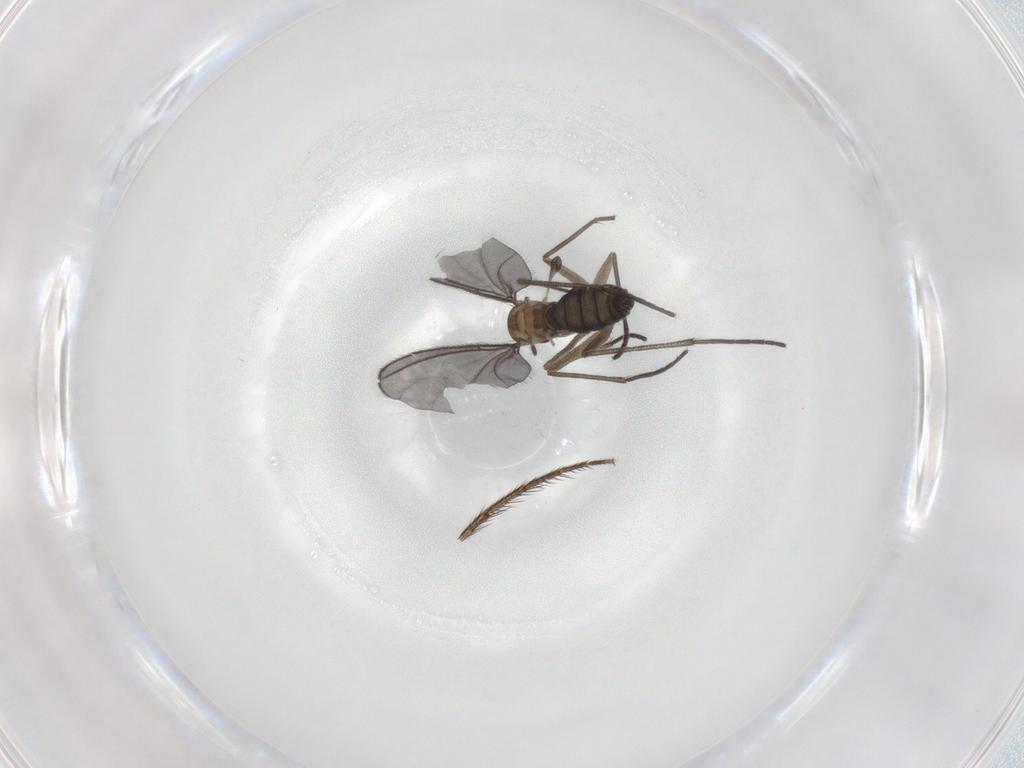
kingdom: Animalia
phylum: Arthropoda
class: Insecta
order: Diptera
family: Sciaridae
